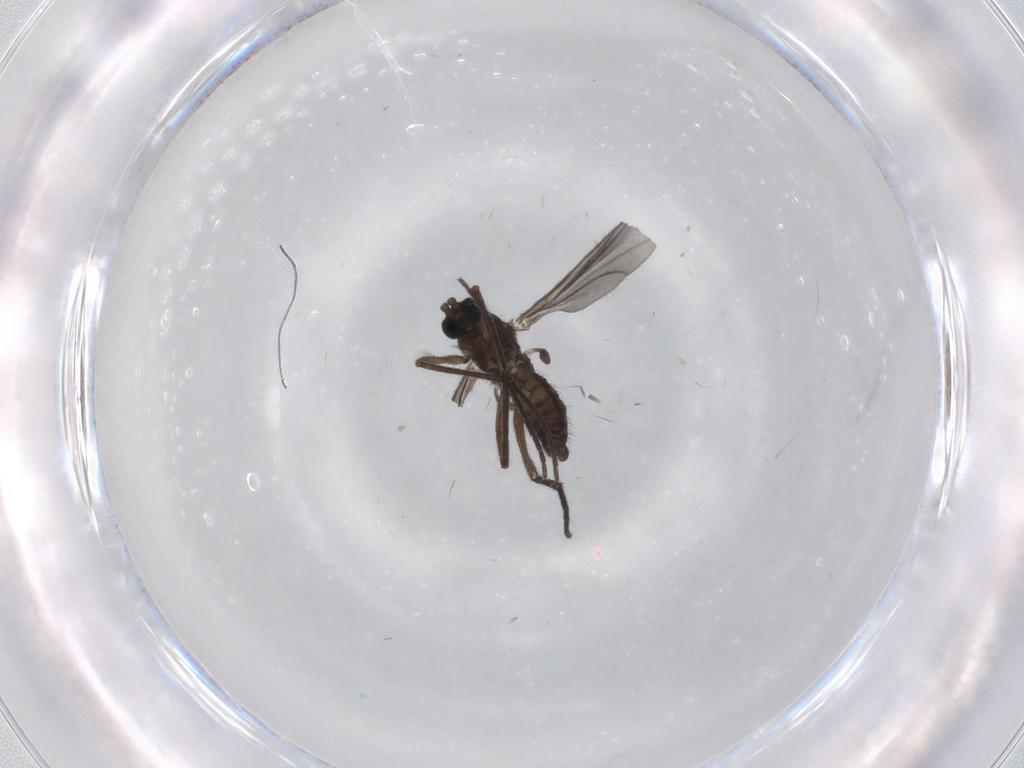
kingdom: Animalia
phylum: Arthropoda
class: Insecta
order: Diptera
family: Sciaridae
